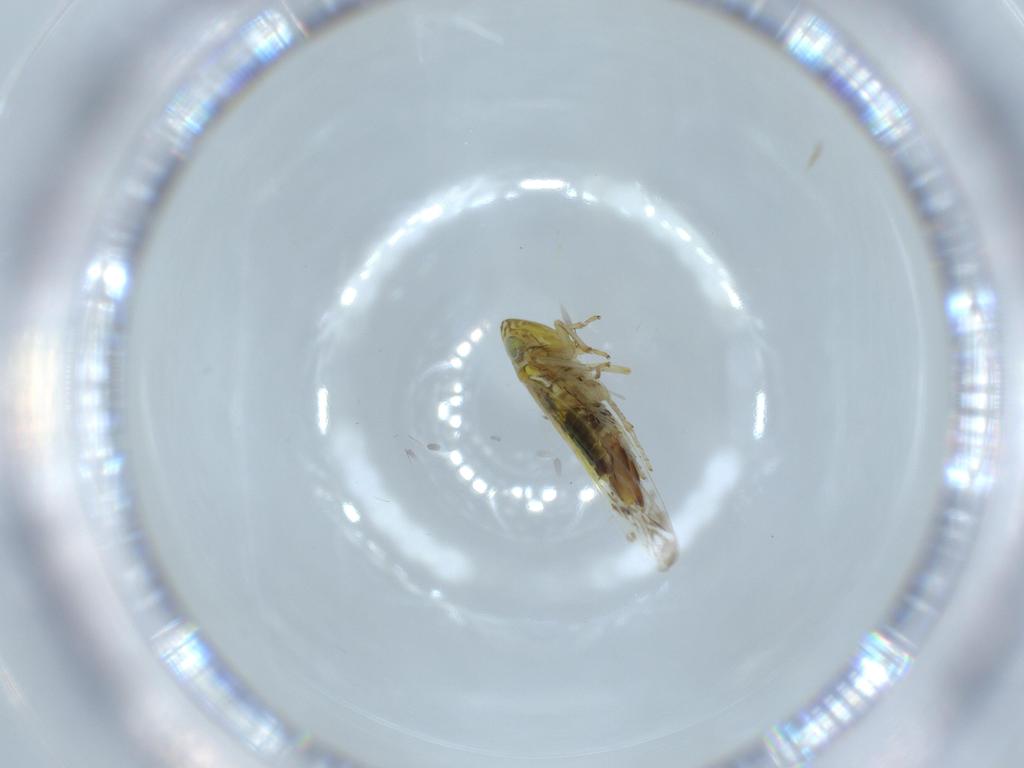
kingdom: Animalia
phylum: Arthropoda
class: Insecta
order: Hemiptera
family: Cicadellidae
